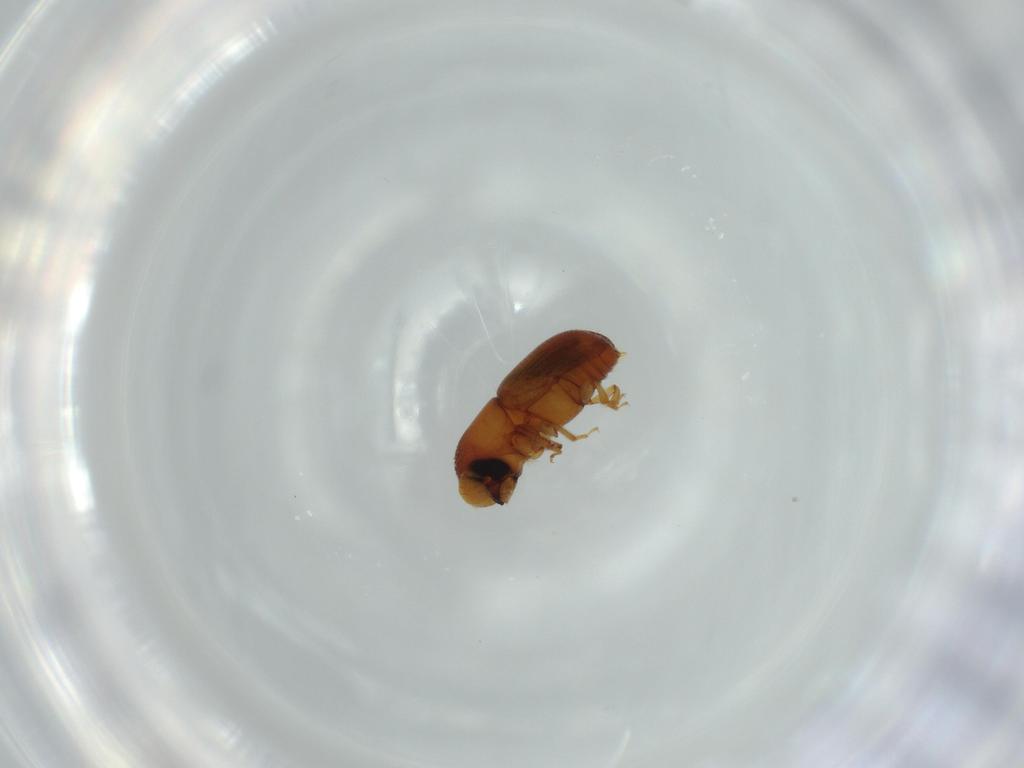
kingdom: Animalia
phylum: Arthropoda
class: Insecta
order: Coleoptera
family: Curculionidae
